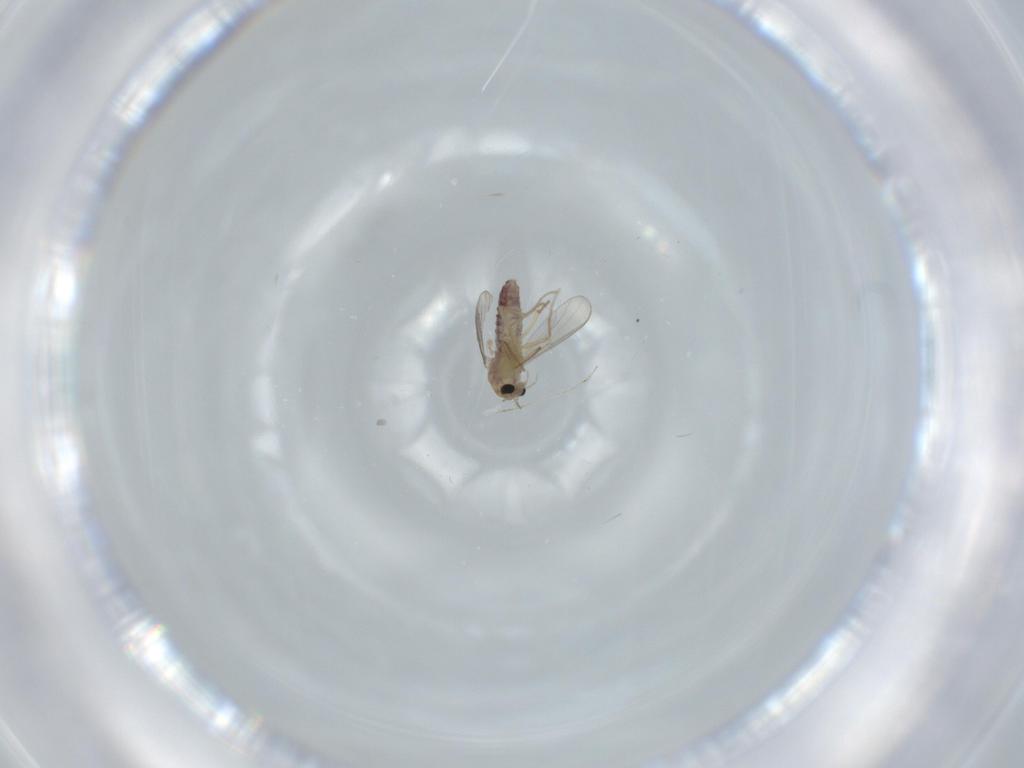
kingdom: Animalia
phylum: Arthropoda
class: Insecta
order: Diptera
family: Chironomidae
